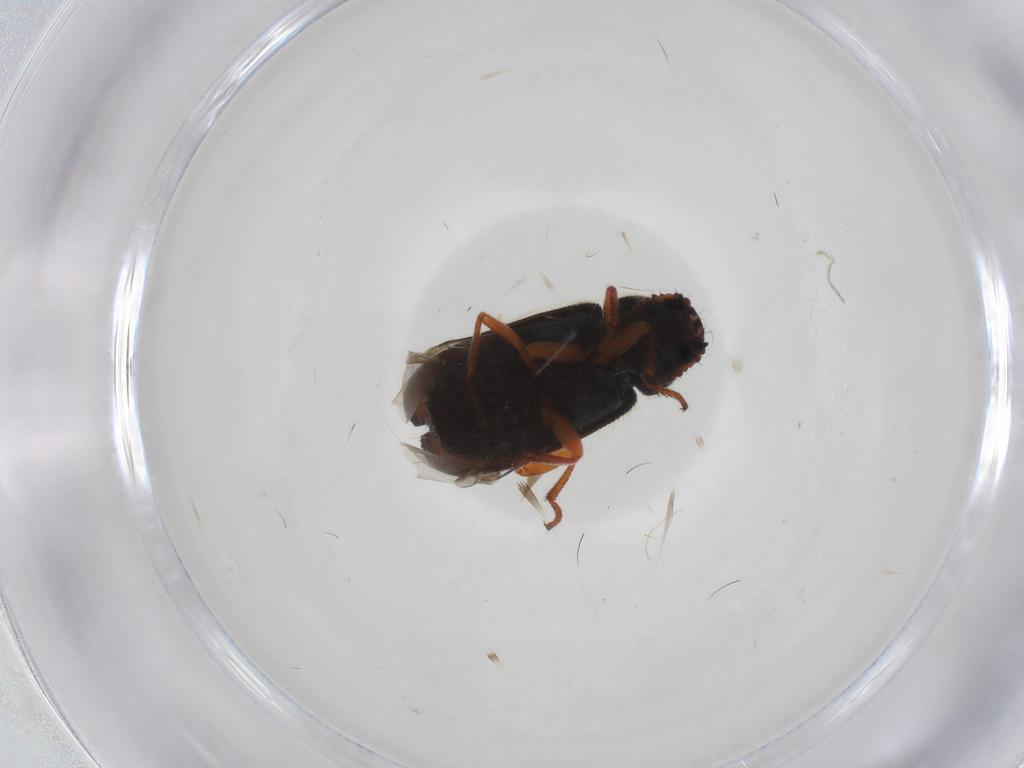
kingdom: Animalia
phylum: Arthropoda
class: Insecta
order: Coleoptera
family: Melyridae
